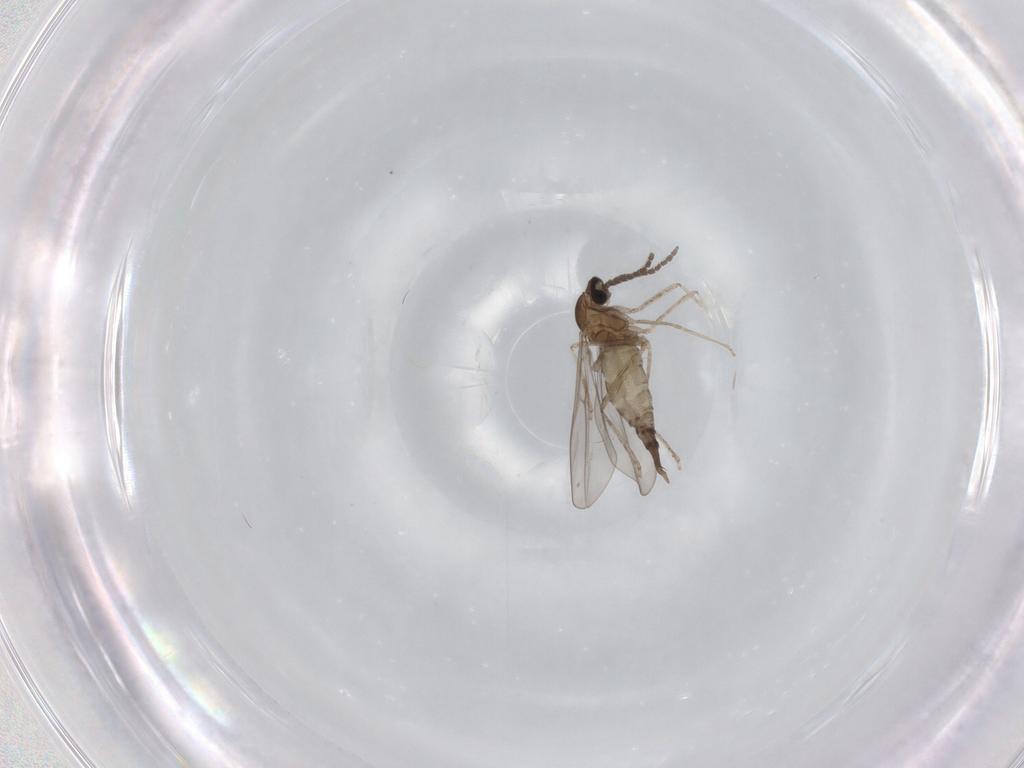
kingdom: Animalia
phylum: Arthropoda
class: Insecta
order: Diptera
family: Cecidomyiidae
